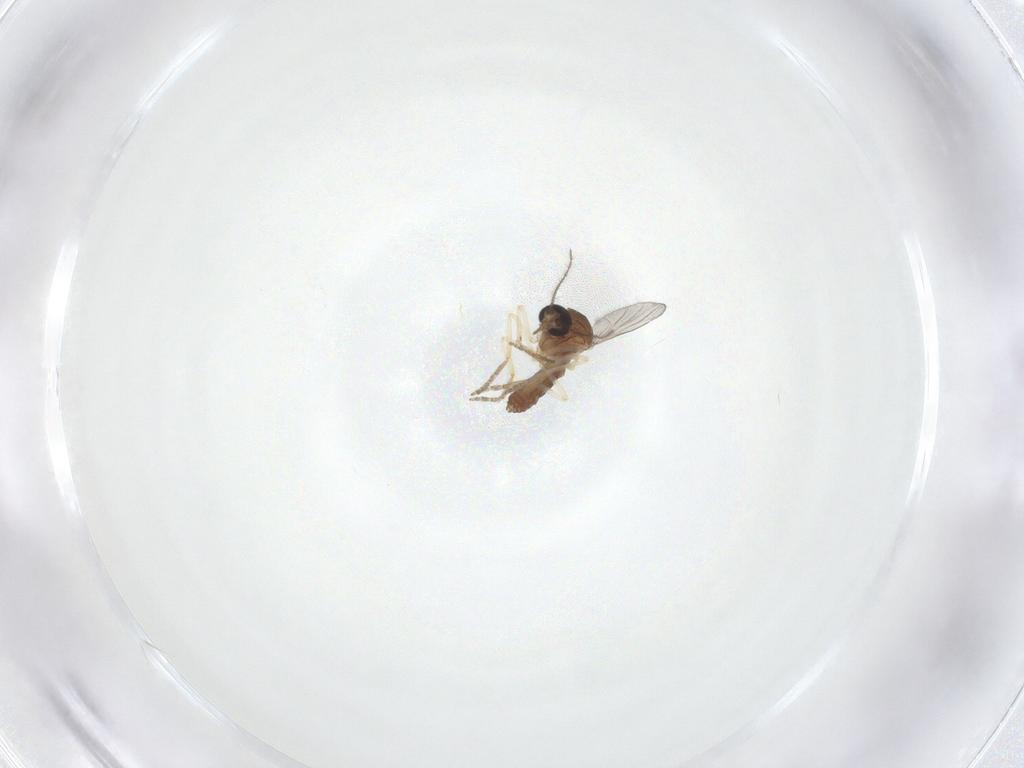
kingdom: Animalia
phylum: Arthropoda
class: Insecta
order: Diptera
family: Ceratopogonidae
